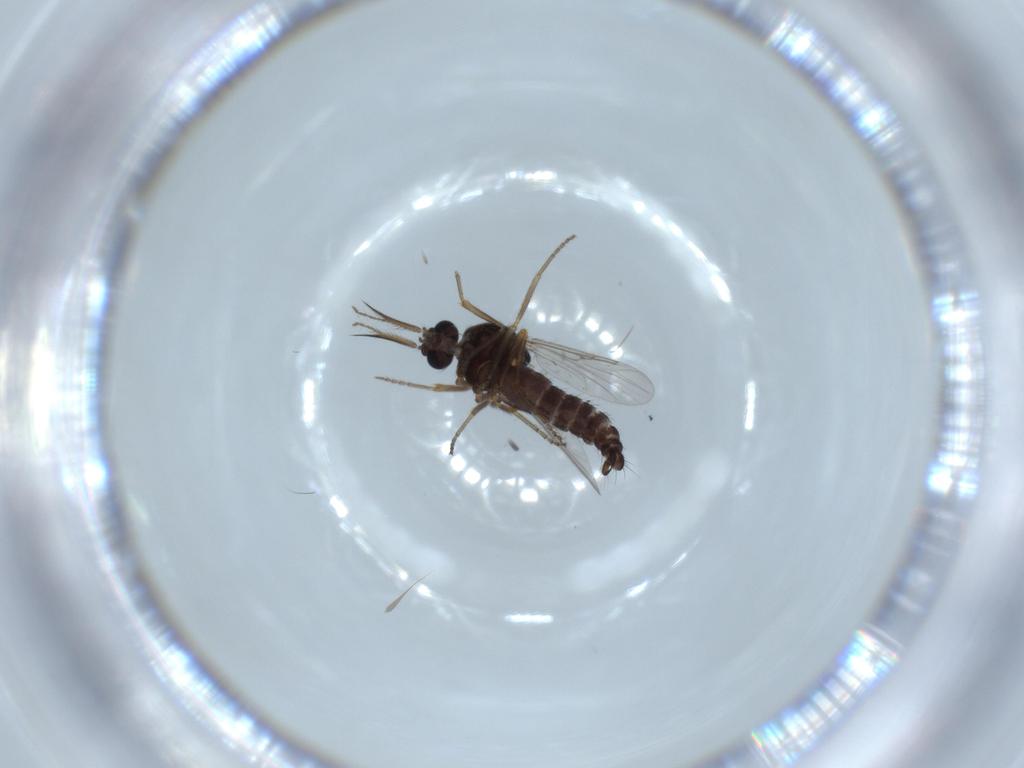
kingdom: Animalia
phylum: Arthropoda
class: Insecta
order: Diptera
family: Ceratopogonidae
